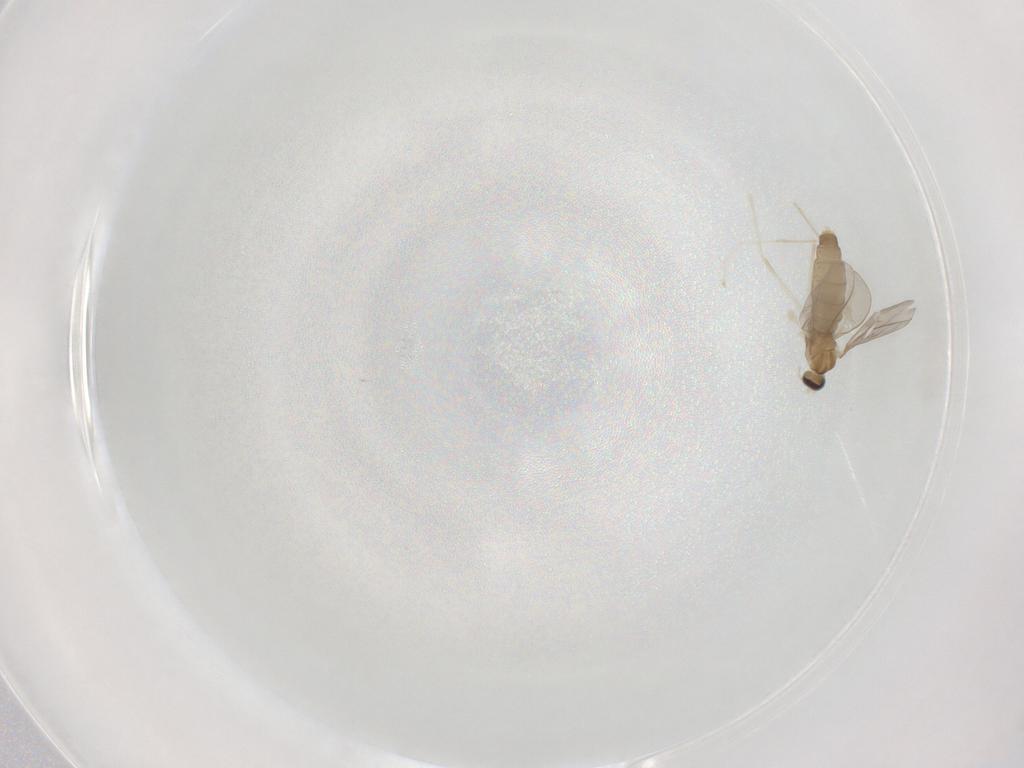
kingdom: Animalia
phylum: Arthropoda
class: Insecta
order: Diptera
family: Cecidomyiidae
